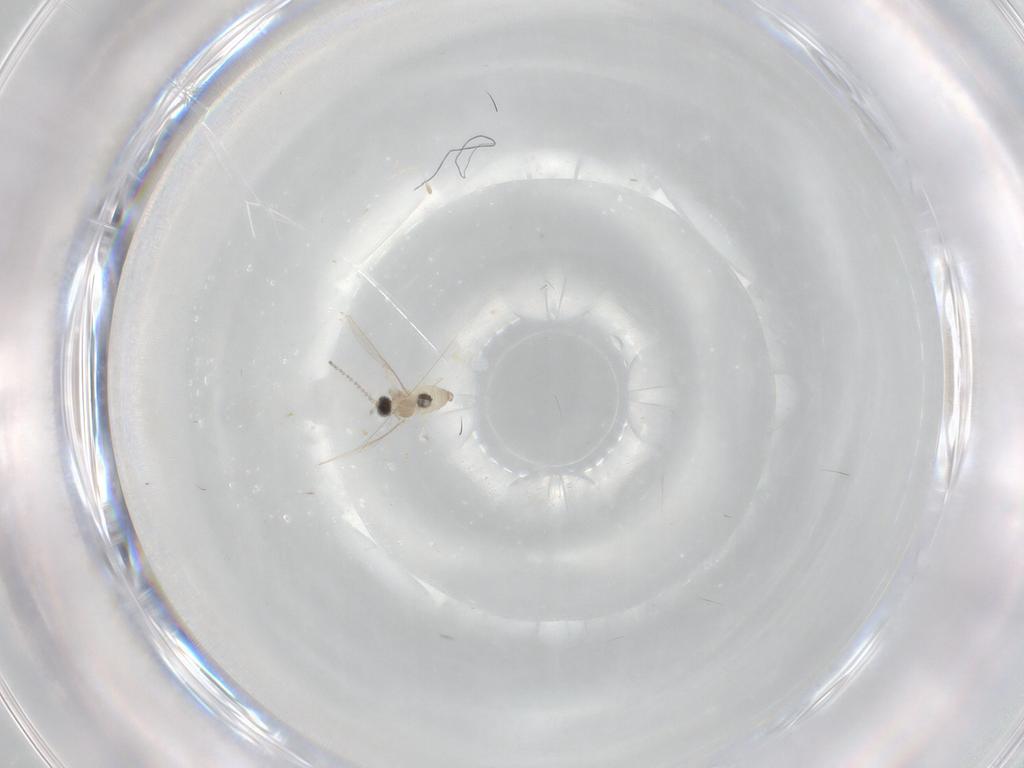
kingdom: Animalia
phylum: Arthropoda
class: Insecta
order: Diptera
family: Cecidomyiidae
